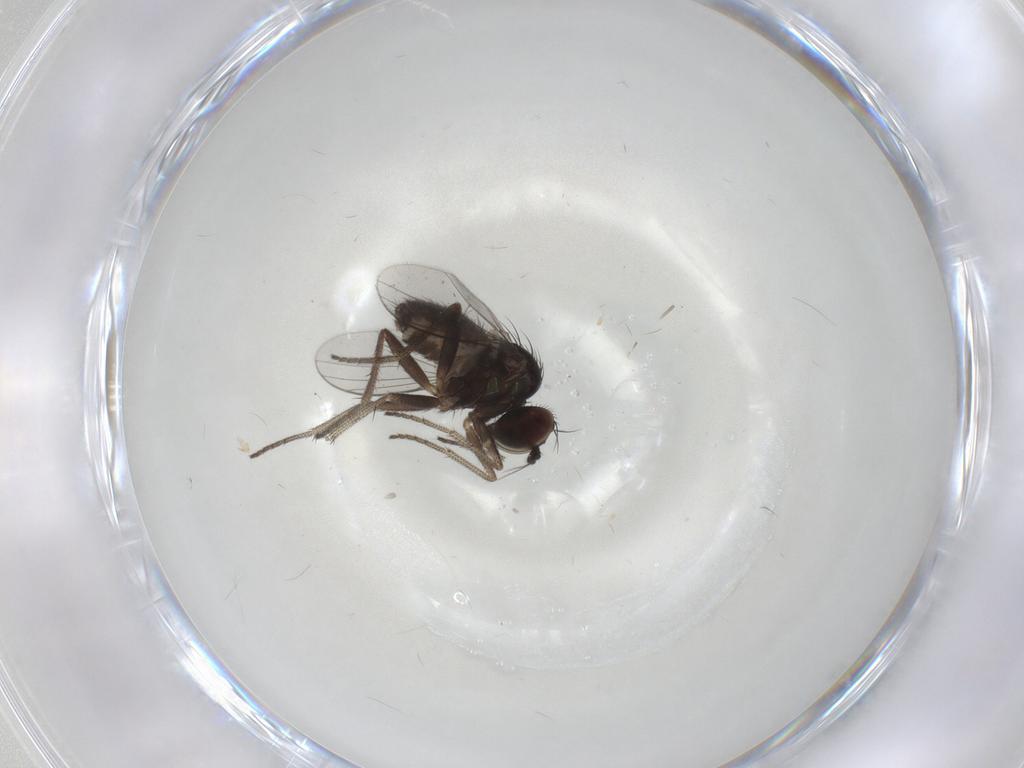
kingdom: Animalia
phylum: Arthropoda
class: Insecta
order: Diptera
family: Dolichopodidae
